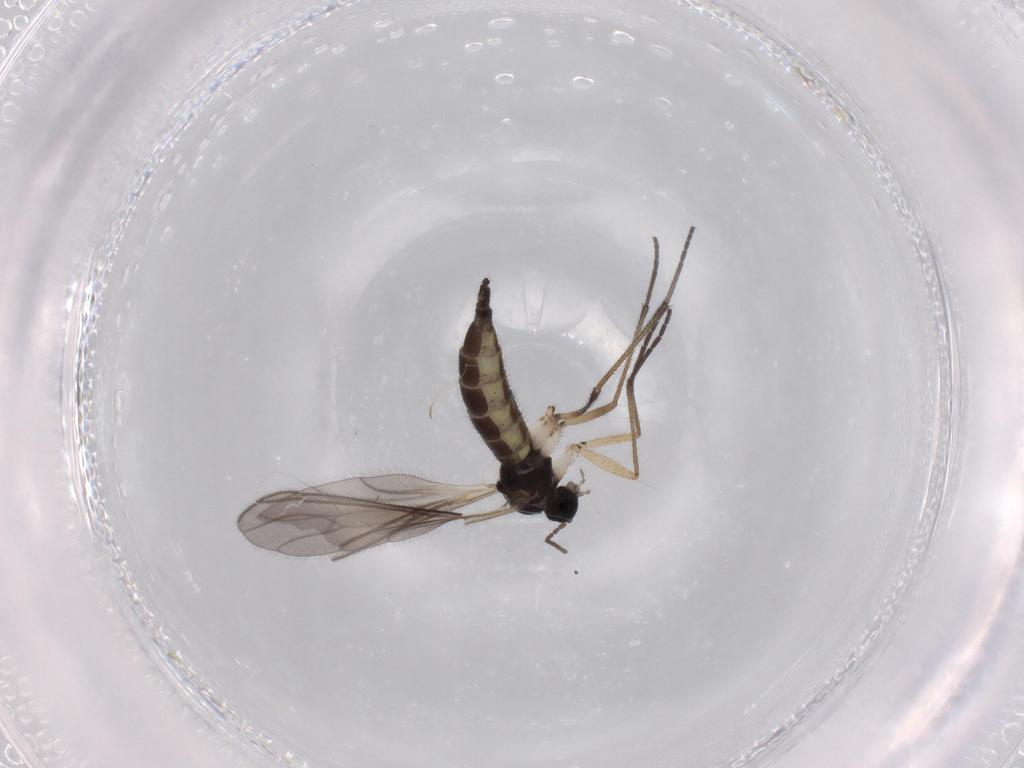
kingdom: Animalia
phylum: Arthropoda
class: Insecta
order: Diptera
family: Sciaridae
